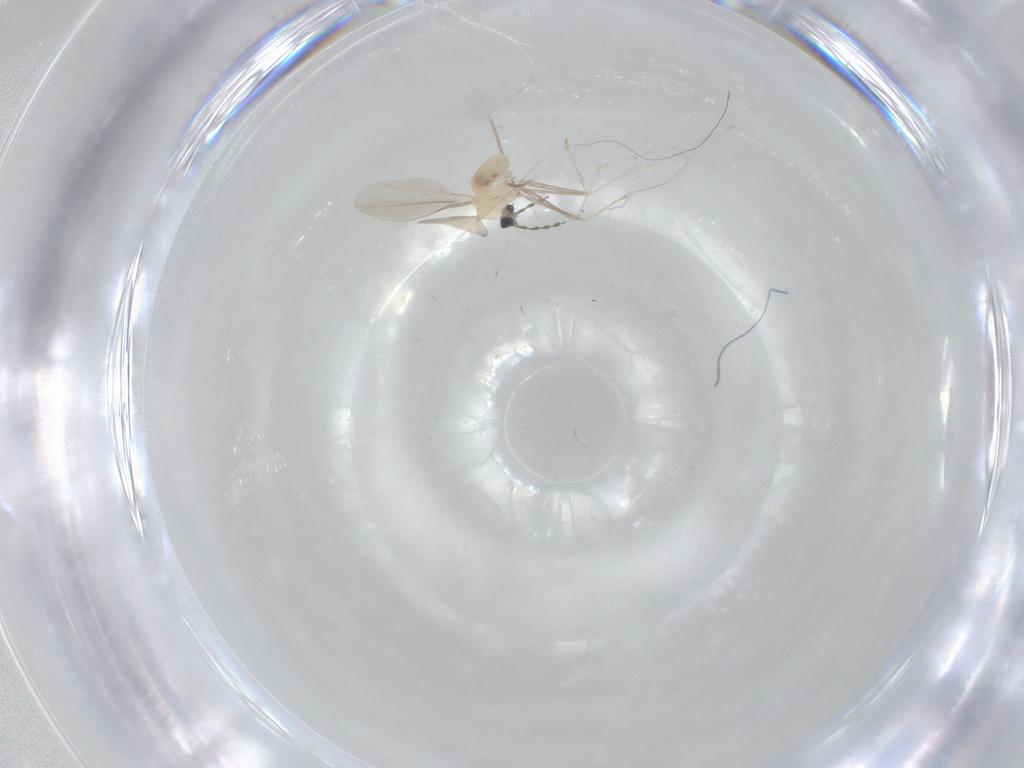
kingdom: Animalia
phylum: Arthropoda
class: Insecta
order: Diptera
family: Cecidomyiidae
